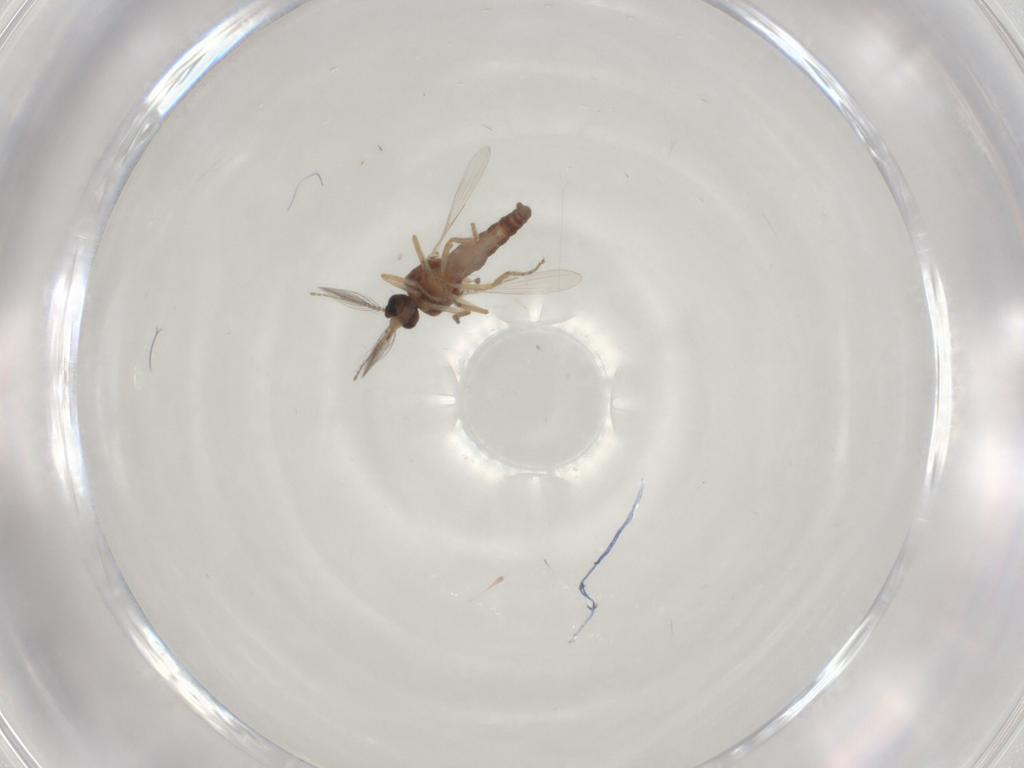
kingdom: Animalia
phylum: Arthropoda
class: Insecta
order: Diptera
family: Ceratopogonidae
